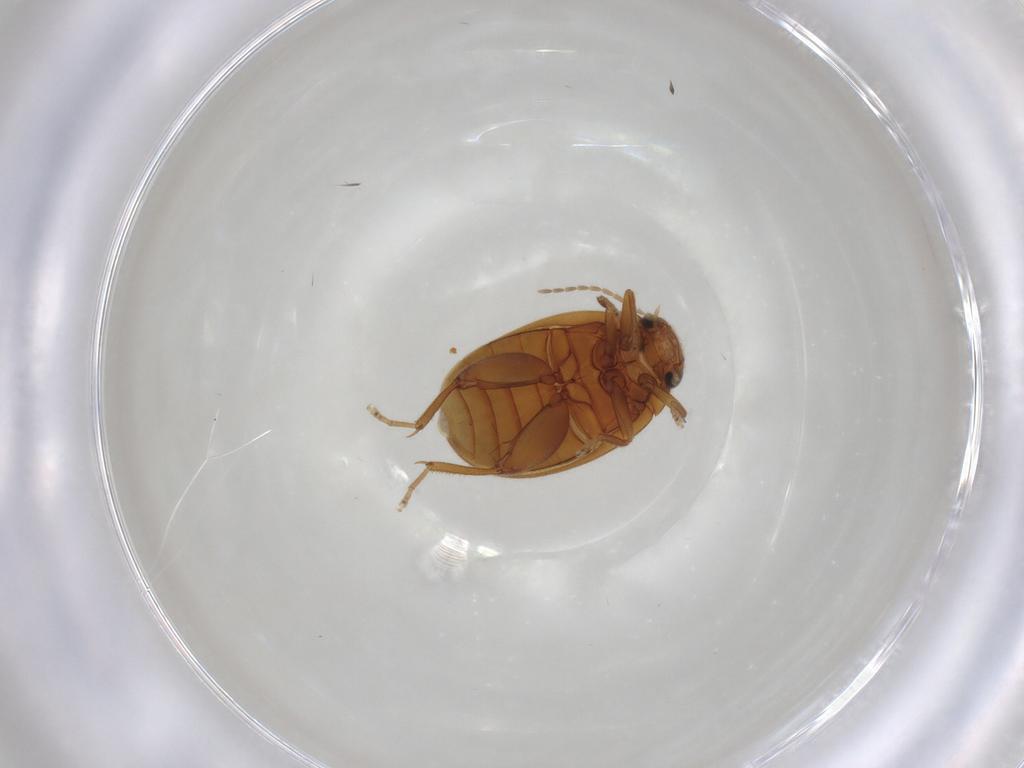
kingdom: Animalia
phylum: Arthropoda
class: Insecta
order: Coleoptera
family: Scirtidae
